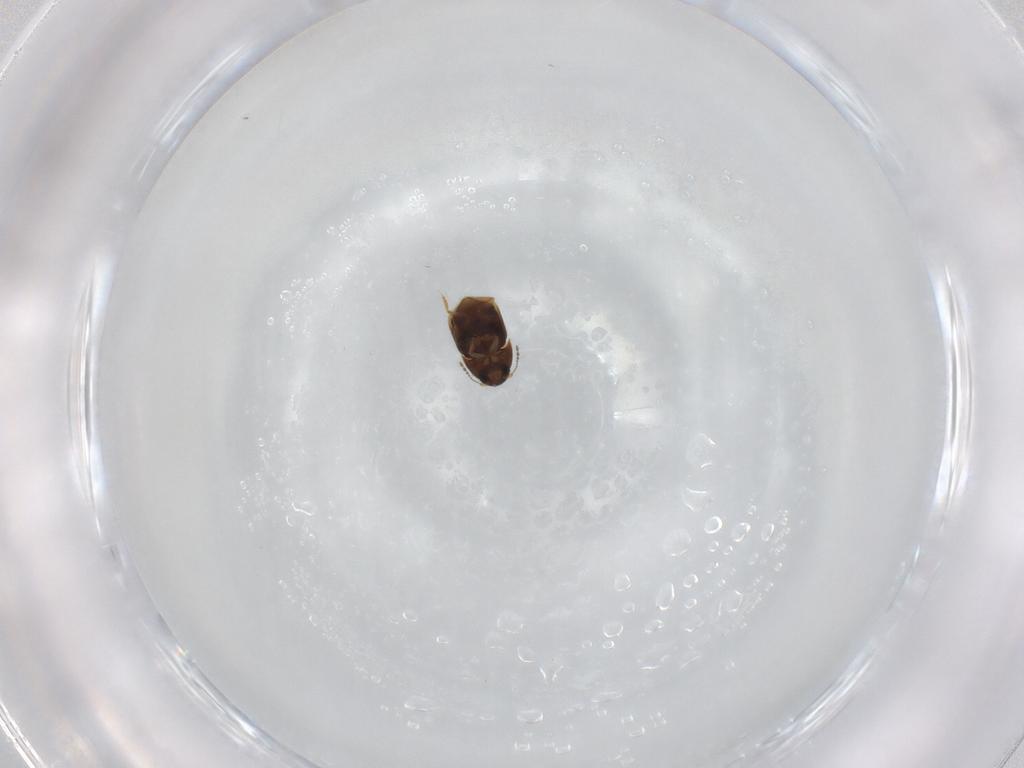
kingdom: Animalia
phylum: Arthropoda
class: Insecta
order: Coleoptera
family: Ptiliidae
